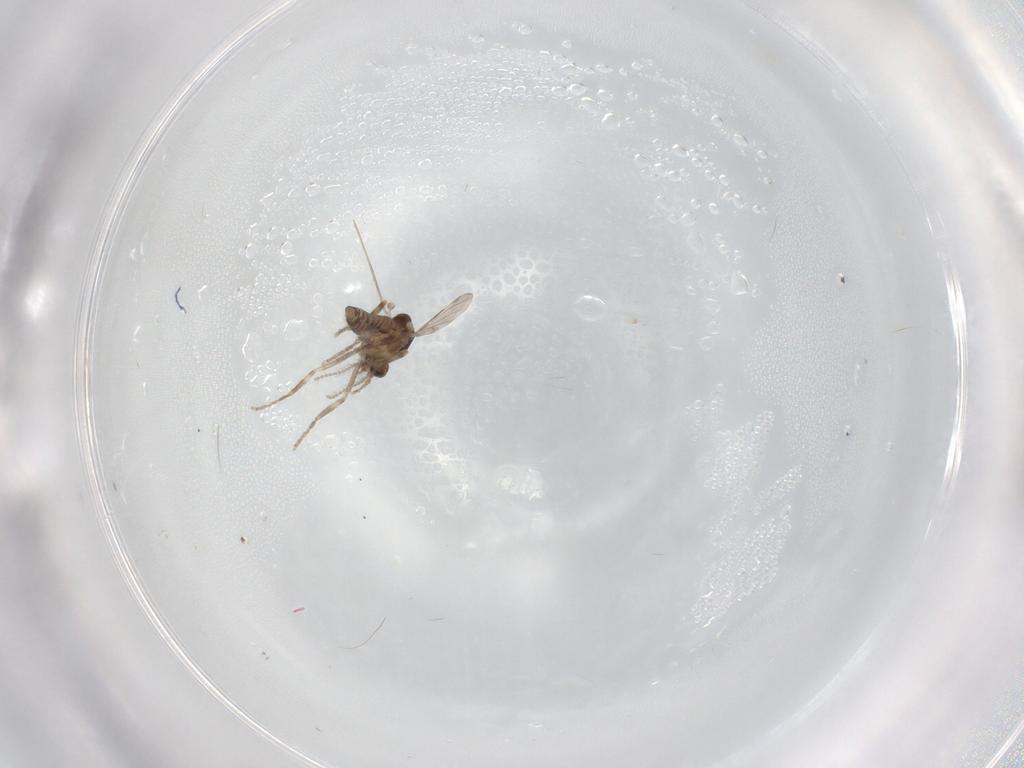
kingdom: Animalia
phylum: Arthropoda
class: Insecta
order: Diptera
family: Ceratopogonidae
